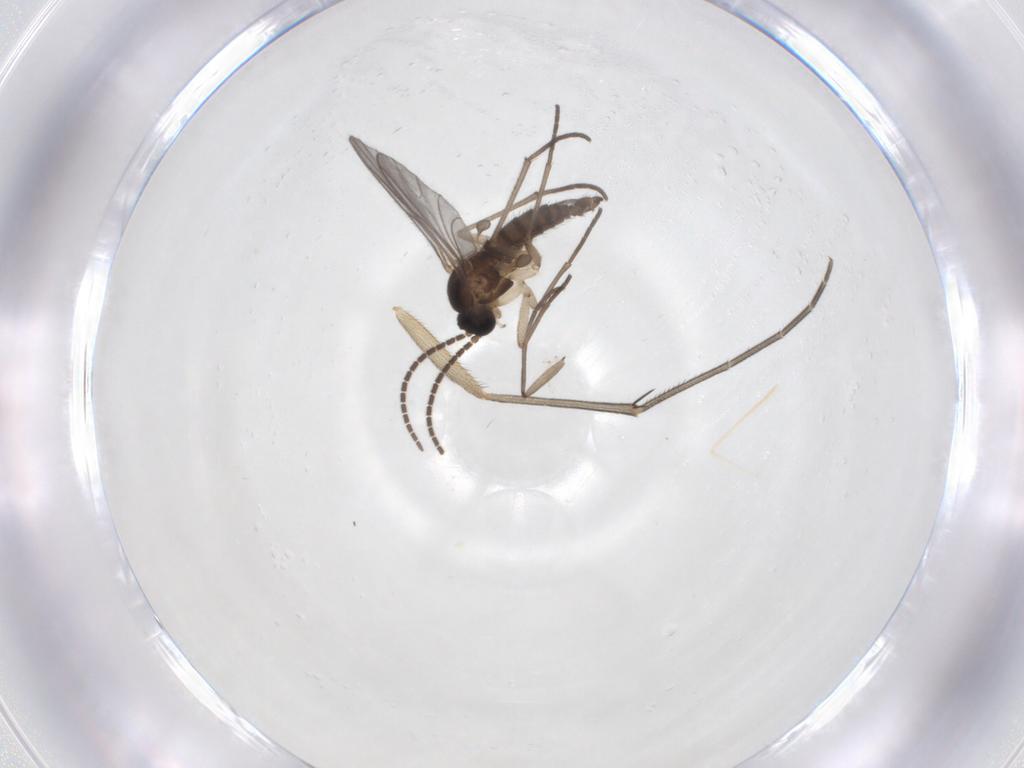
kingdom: Animalia
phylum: Arthropoda
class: Insecta
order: Diptera
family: Sciaridae
